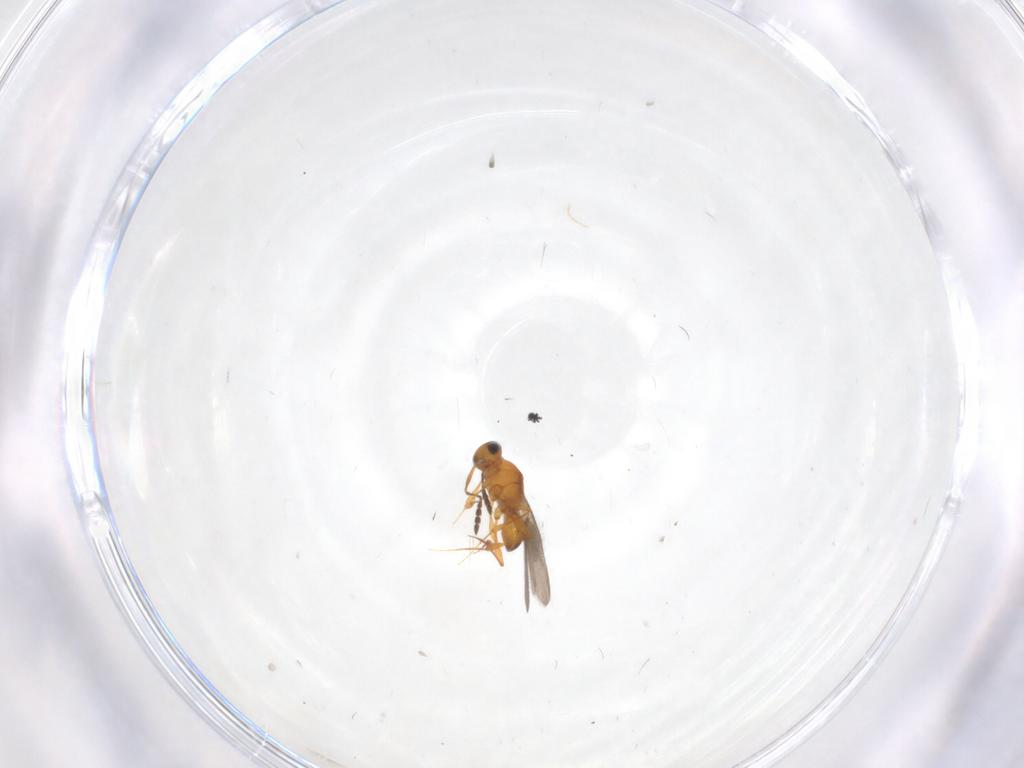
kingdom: Animalia
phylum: Arthropoda
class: Insecta
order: Hymenoptera
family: Platygastridae
